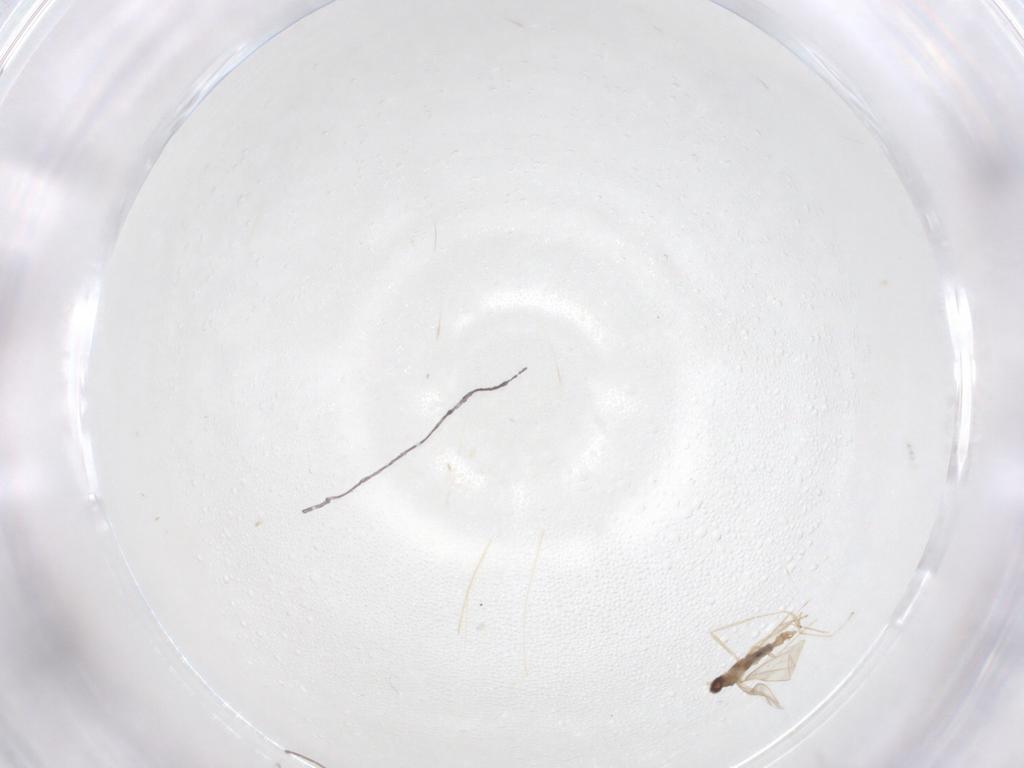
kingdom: Animalia
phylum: Arthropoda
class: Insecta
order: Diptera
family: Cecidomyiidae
